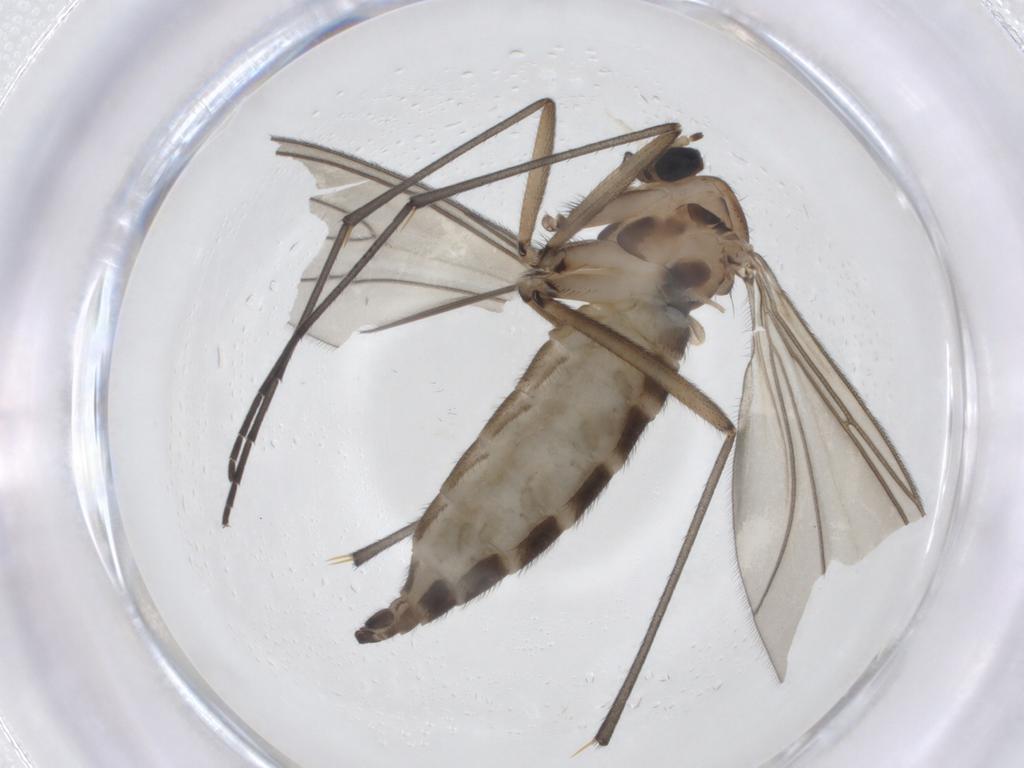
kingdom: Animalia
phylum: Arthropoda
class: Insecta
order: Diptera
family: Sciaridae
